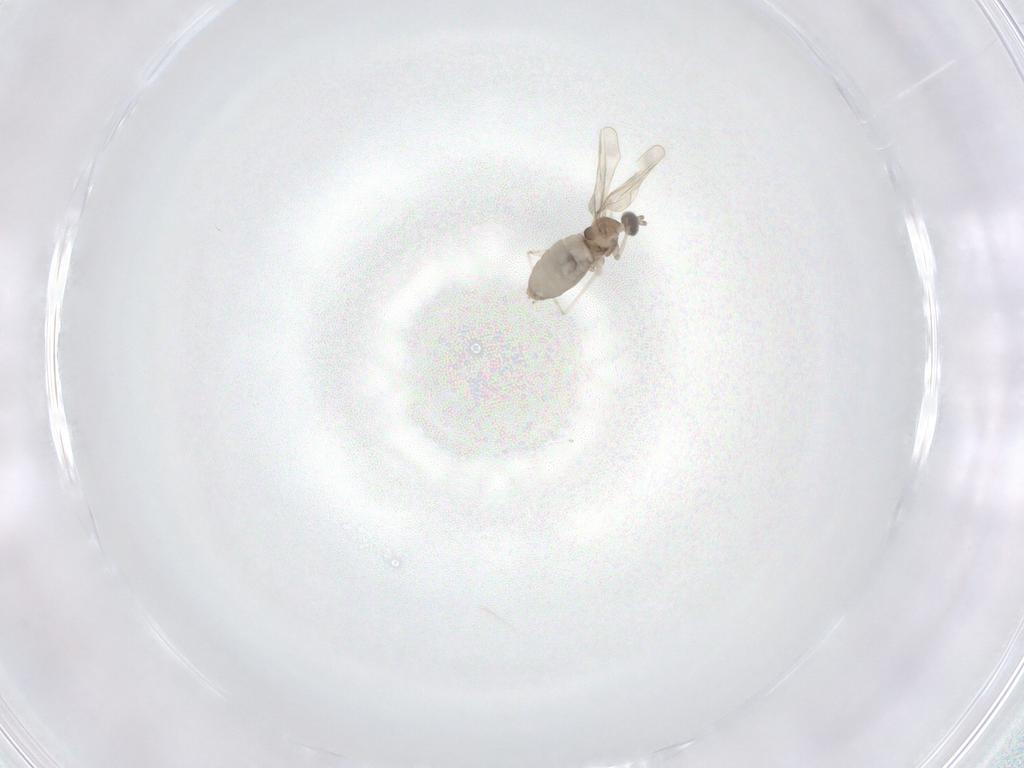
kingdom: Animalia
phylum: Arthropoda
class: Insecta
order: Diptera
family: Cecidomyiidae
